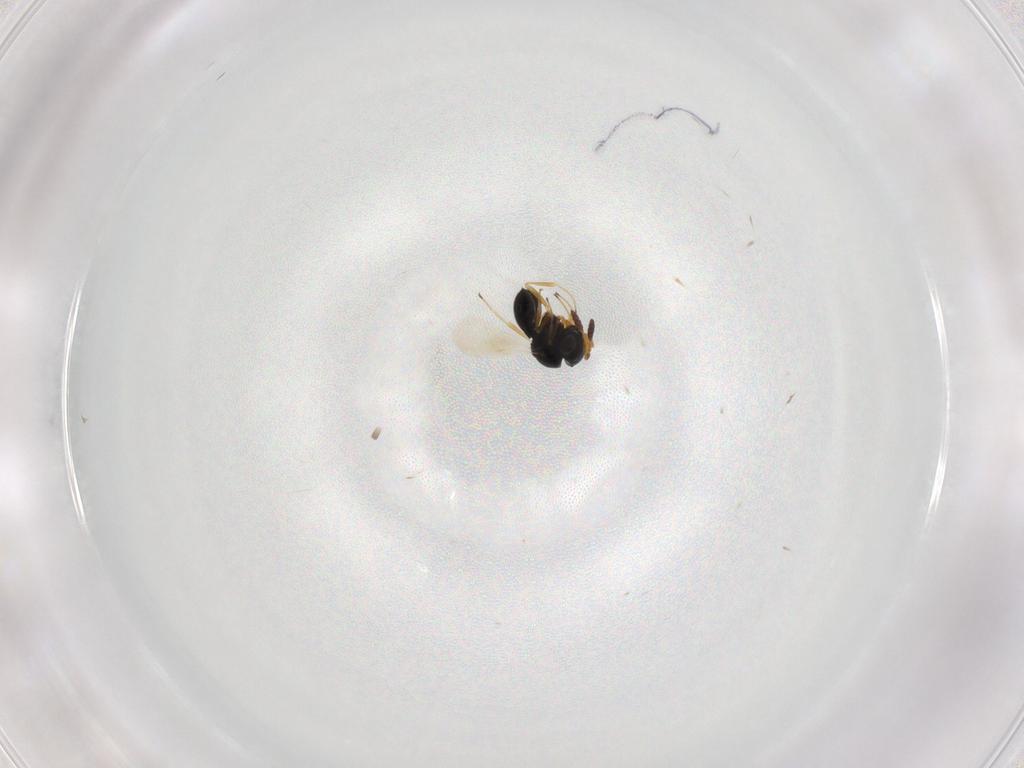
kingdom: Animalia
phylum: Arthropoda
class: Insecta
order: Hymenoptera
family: Scelionidae
